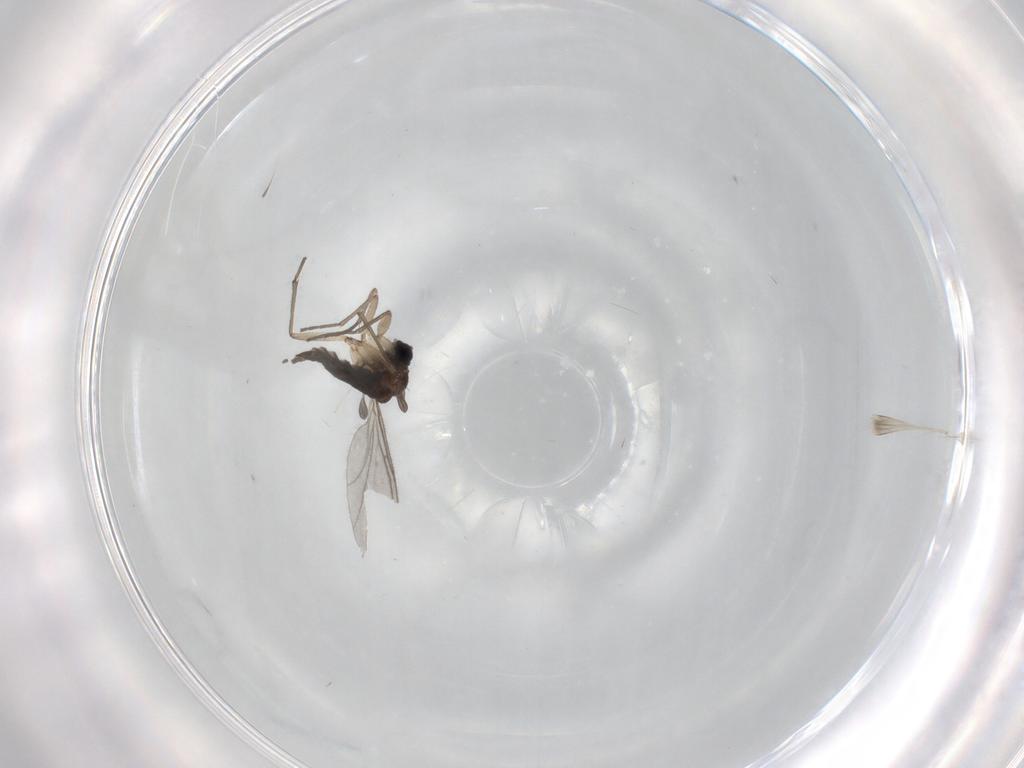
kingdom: Animalia
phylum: Arthropoda
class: Insecta
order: Diptera
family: Sciaridae
